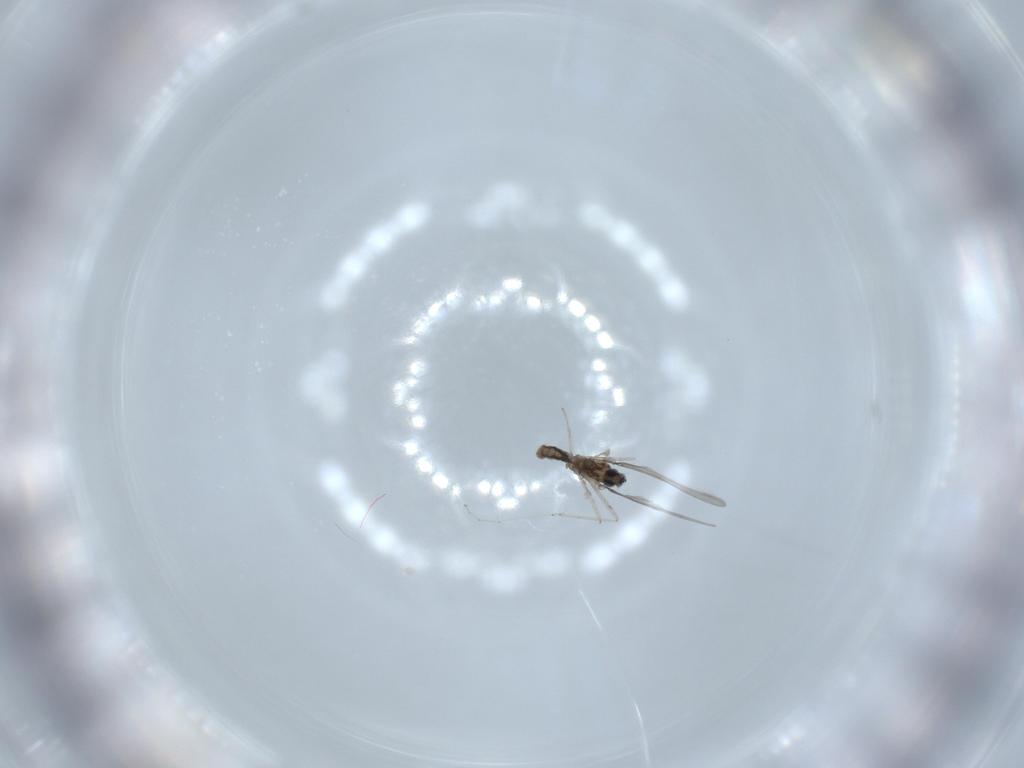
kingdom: Animalia
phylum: Arthropoda
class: Insecta
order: Diptera
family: Cecidomyiidae
